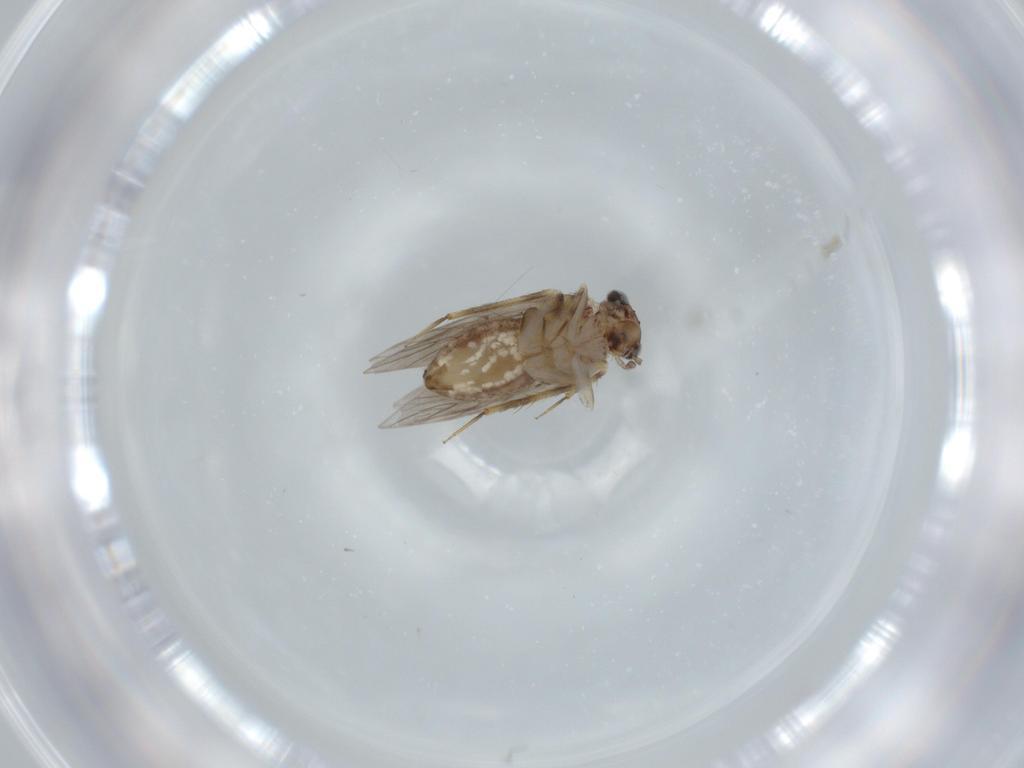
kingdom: Animalia
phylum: Arthropoda
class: Insecta
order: Psocodea
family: Lepidopsocidae
